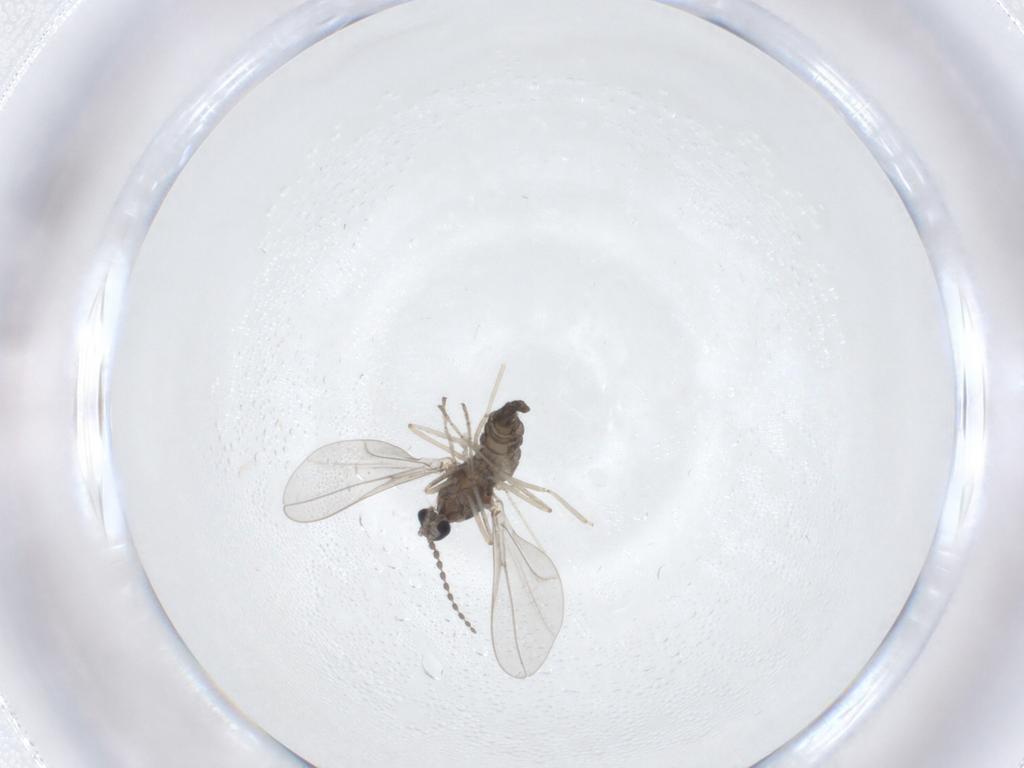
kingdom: Animalia
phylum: Arthropoda
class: Insecta
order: Diptera
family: Cecidomyiidae
